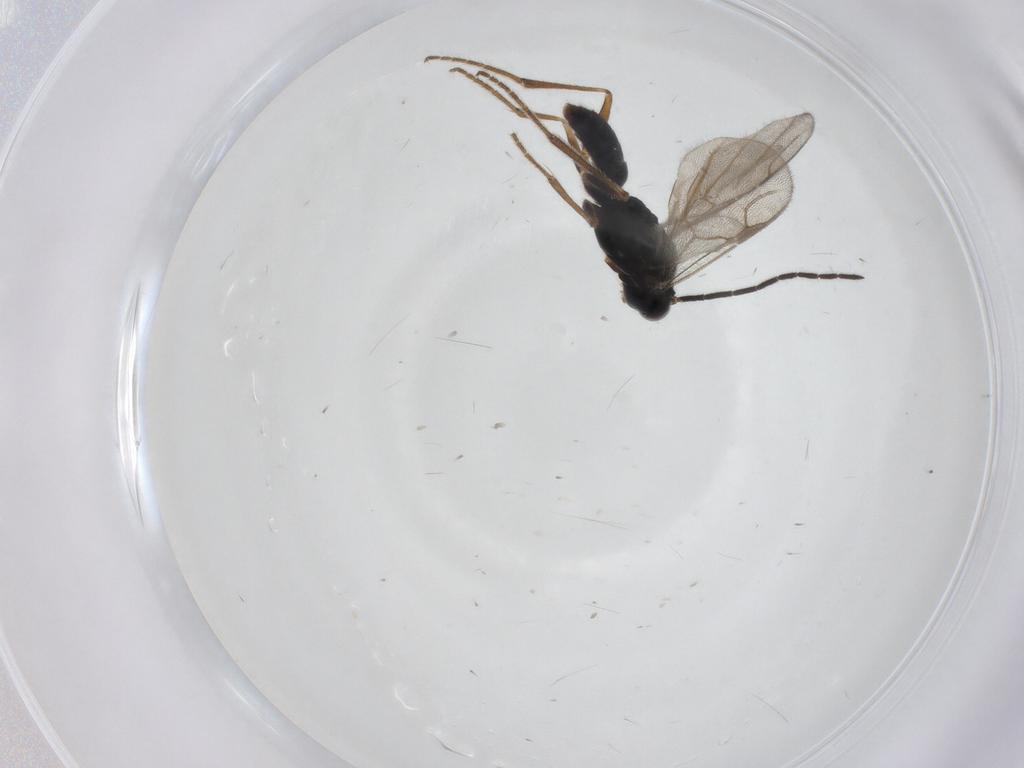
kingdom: Animalia
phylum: Arthropoda
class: Insecta
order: Hymenoptera
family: Dryinidae
